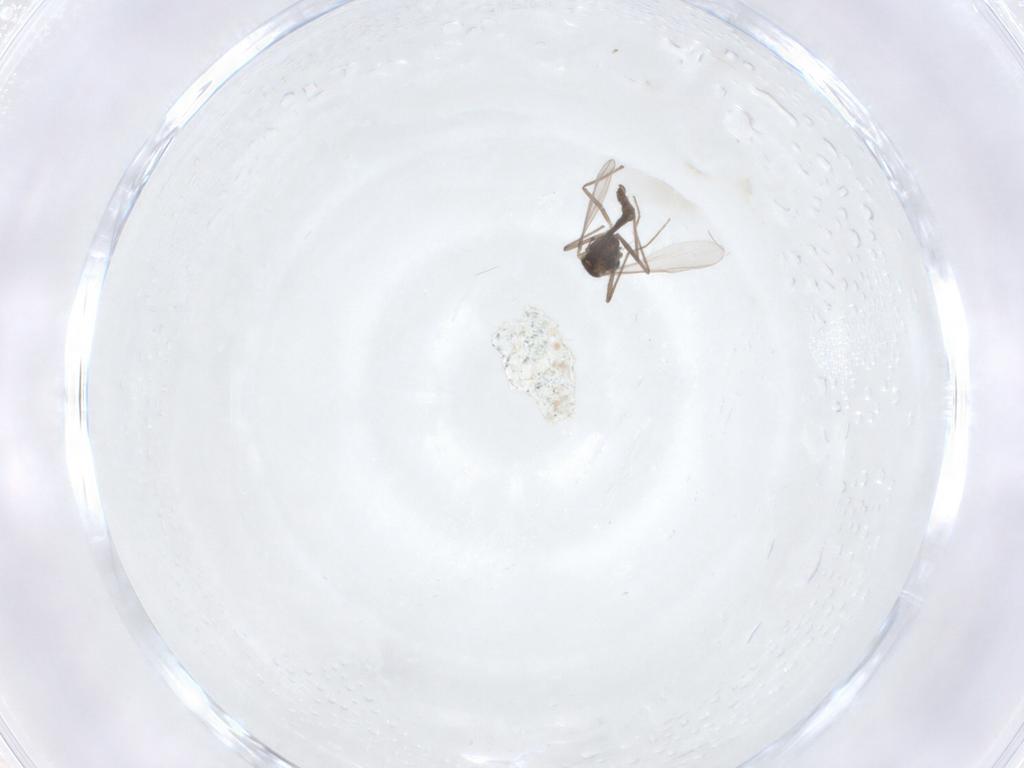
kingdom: Animalia
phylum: Arthropoda
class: Insecta
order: Diptera
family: Chironomidae
